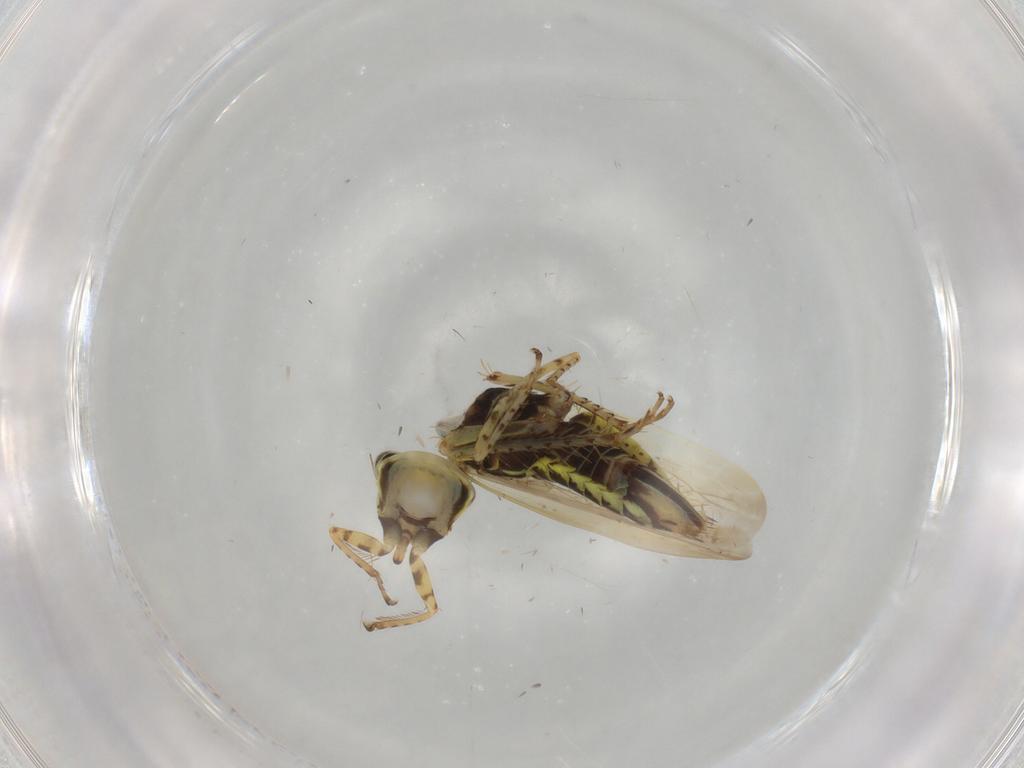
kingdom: Animalia
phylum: Arthropoda
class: Insecta
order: Hemiptera
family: Cicadellidae
